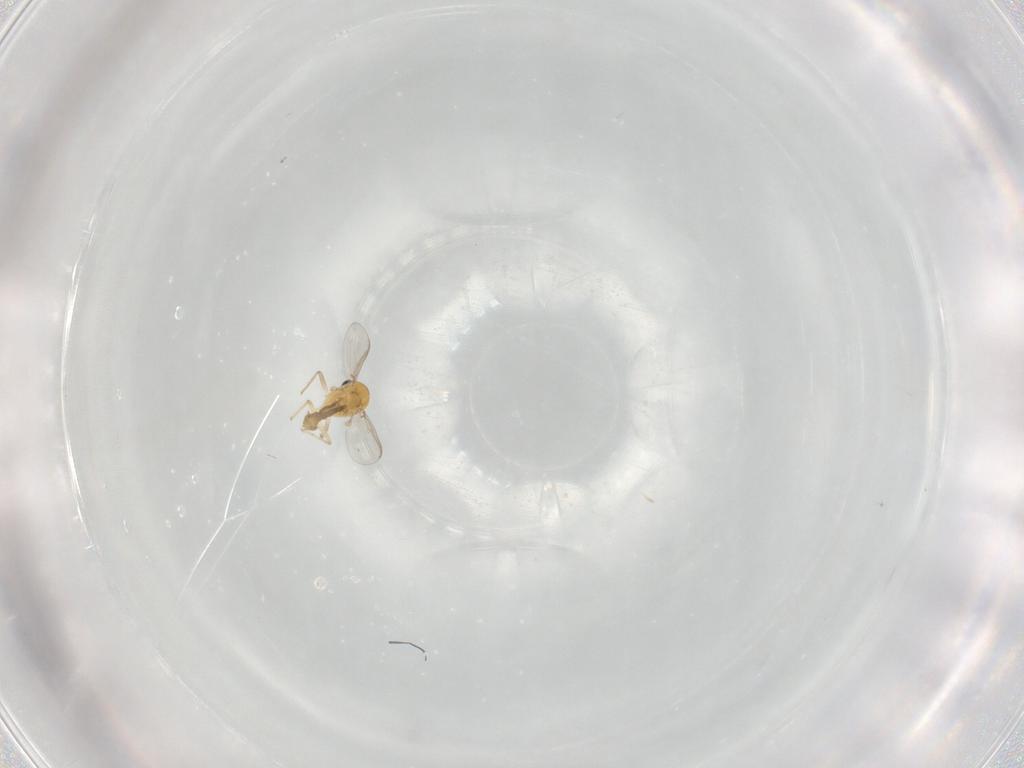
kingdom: Animalia
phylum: Arthropoda
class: Insecta
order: Diptera
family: Chironomidae
